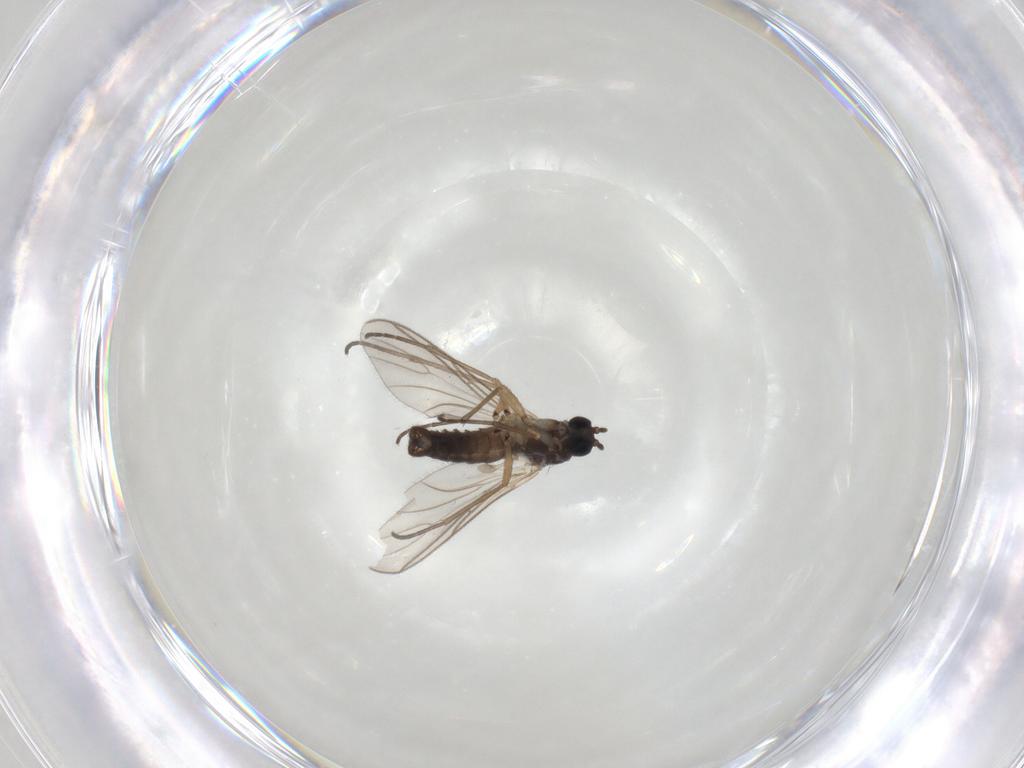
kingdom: Animalia
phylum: Arthropoda
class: Insecta
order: Diptera
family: Sciaridae
